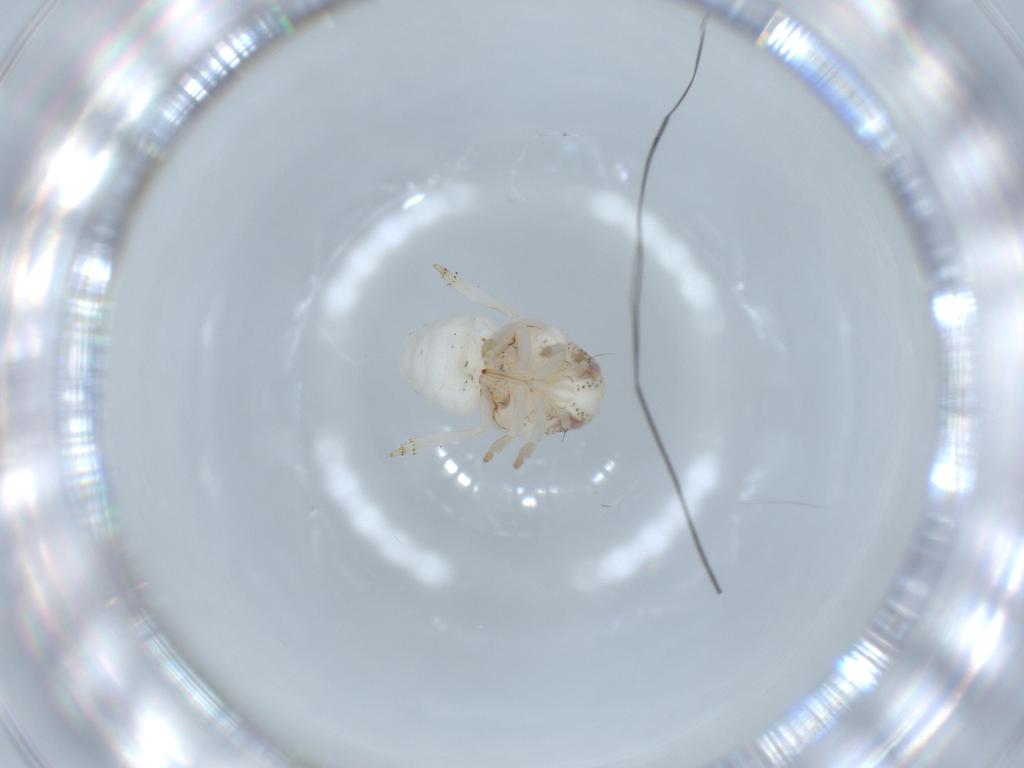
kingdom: Animalia
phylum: Arthropoda
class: Insecta
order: Hemiptera
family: Acanaloniidae
